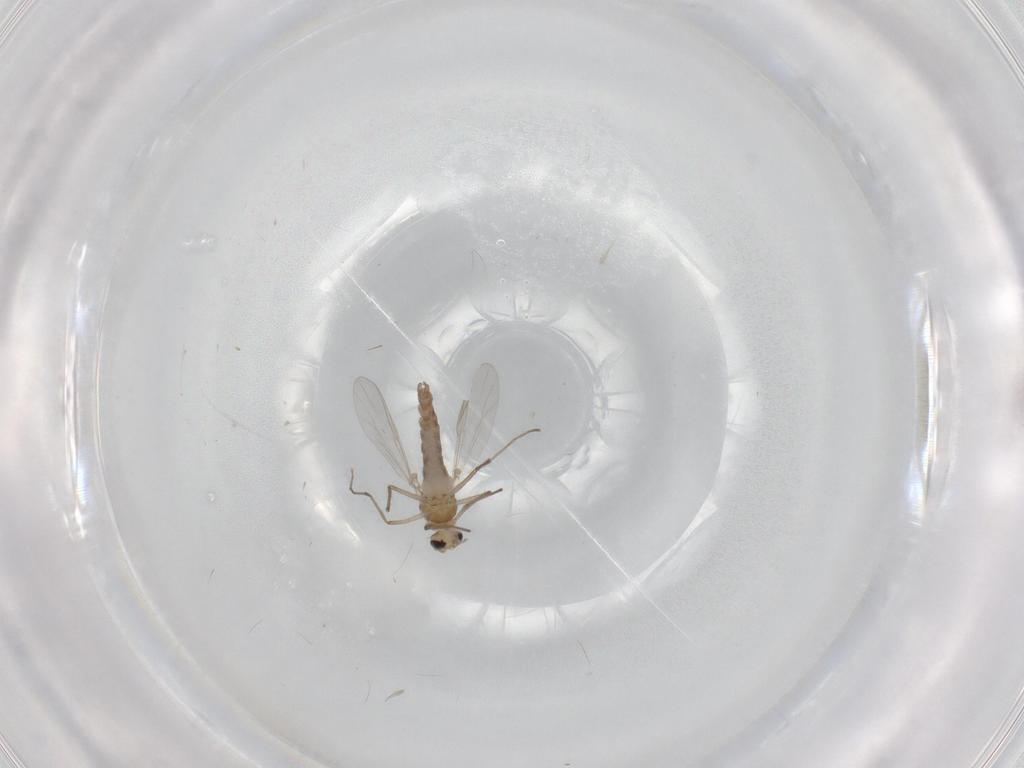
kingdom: Animalia
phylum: Arthropoda
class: Insecta
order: Diptera
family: Chironomidae
